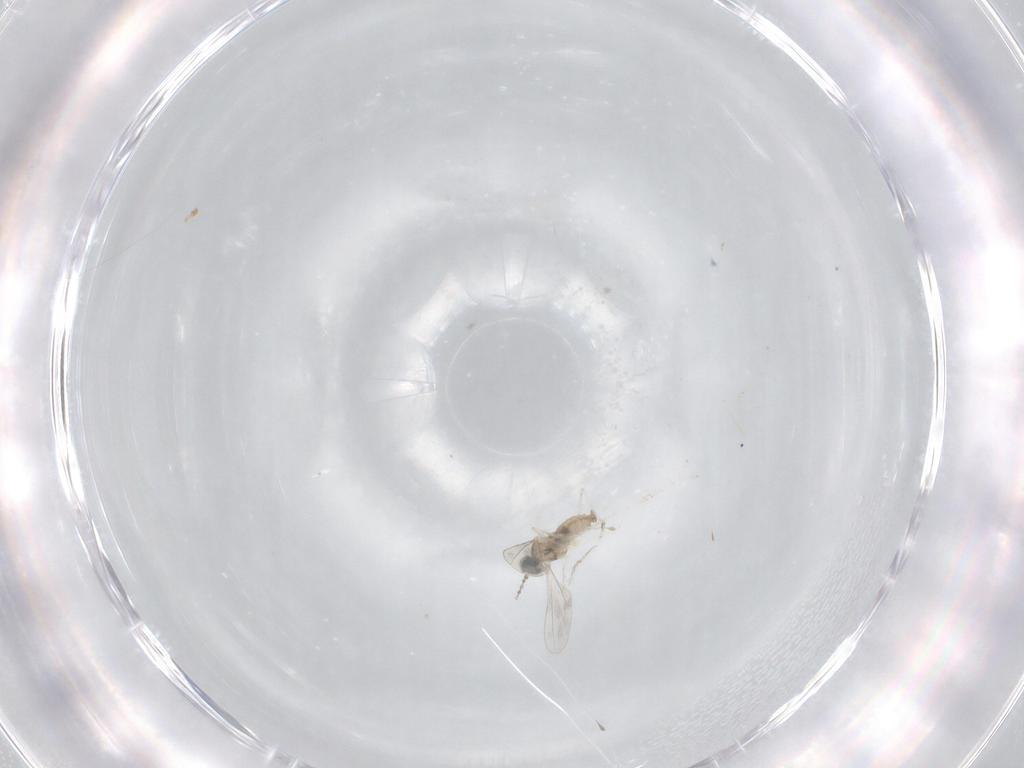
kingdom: Animalia
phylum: Arthropoda
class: Insecta
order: Diptera
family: Cecidomyiidae
